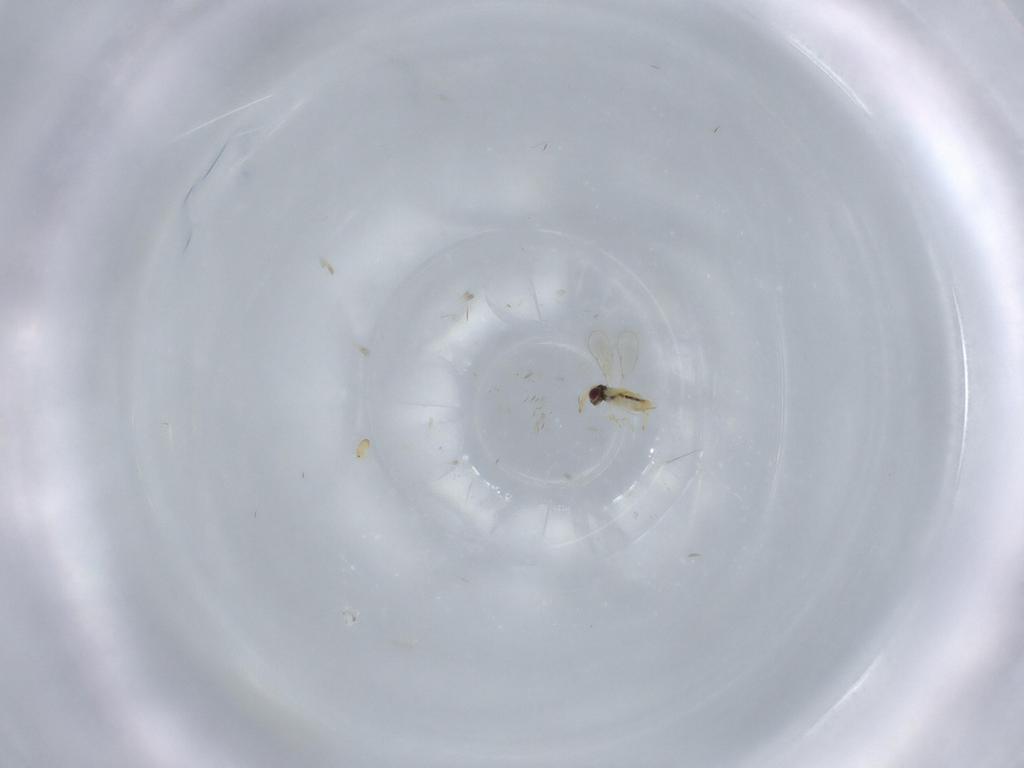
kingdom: Animalia
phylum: Arthropoda
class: Insecta
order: Hymenoptera
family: Aphelinidae
